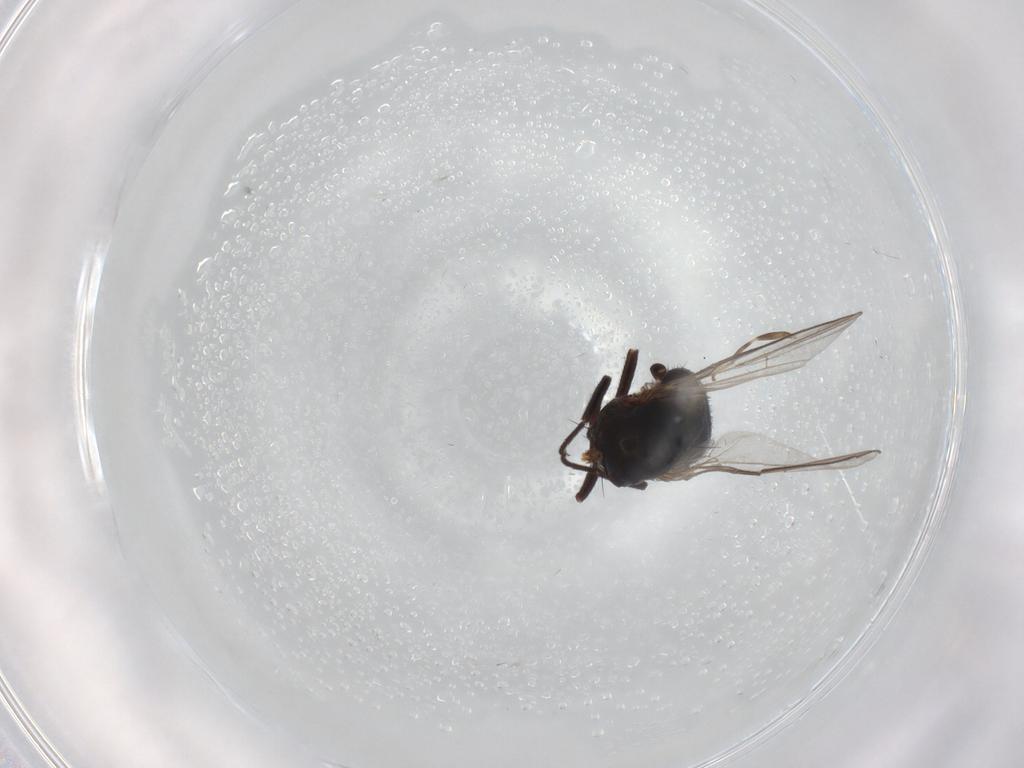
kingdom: Animalia
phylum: Arthropoda
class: Insecta
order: Diptera
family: Agromyzidae
